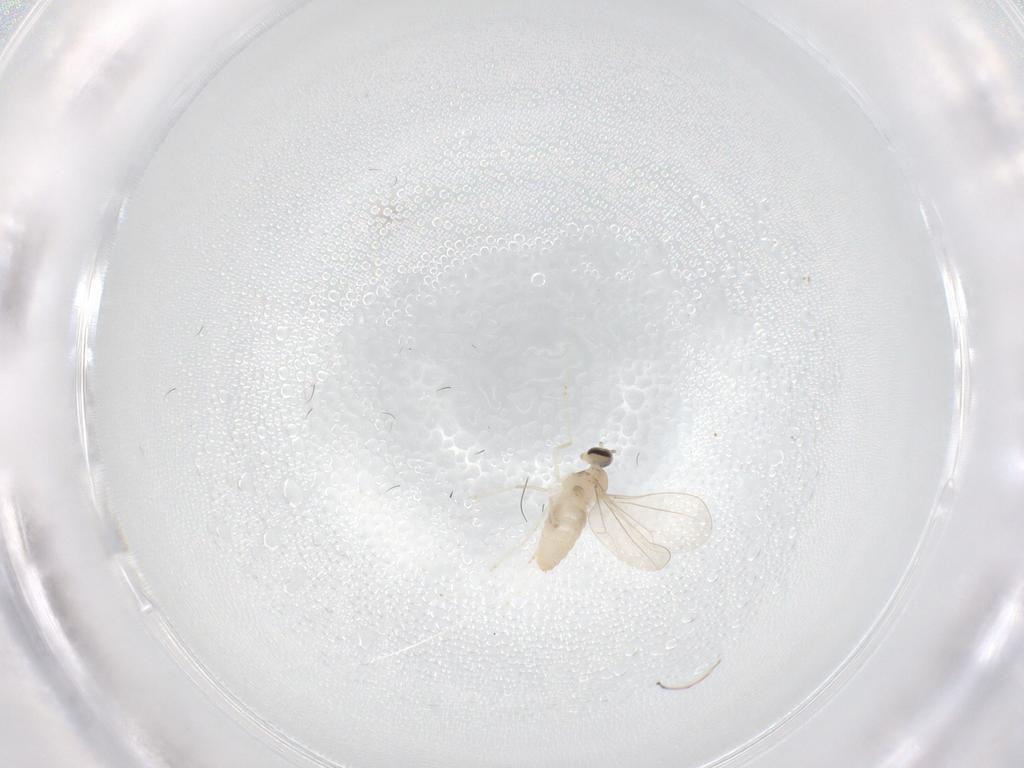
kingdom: Animalia
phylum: Arthropoda
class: Insecta
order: Diptera
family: Cecidomyiidae
